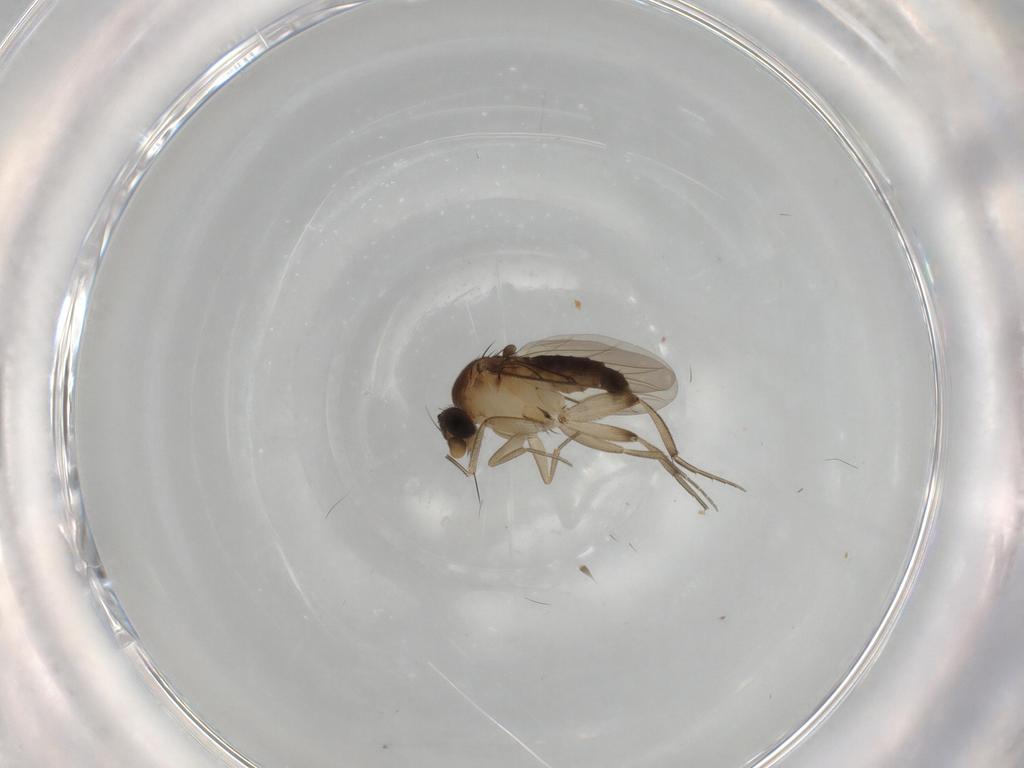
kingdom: Animalia
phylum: Arthropoda
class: Insecta
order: Diptera
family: Phoridae
